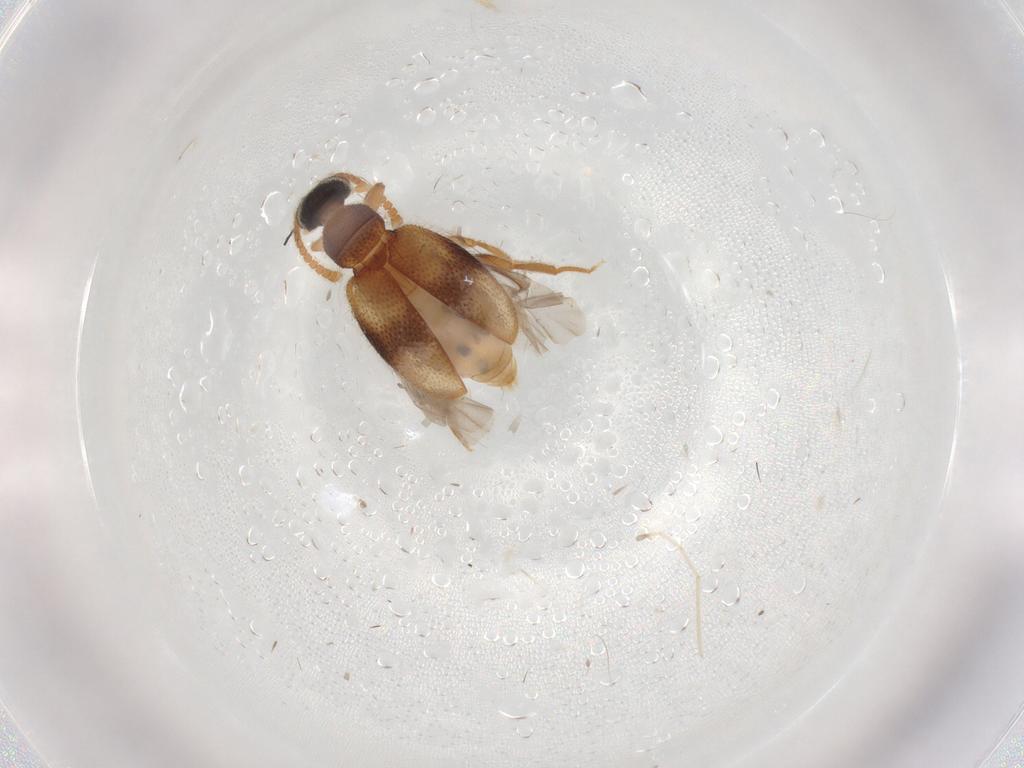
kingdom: Animalia
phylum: Arthropoda
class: Insecta
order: Coleoptera
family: Aderidae
